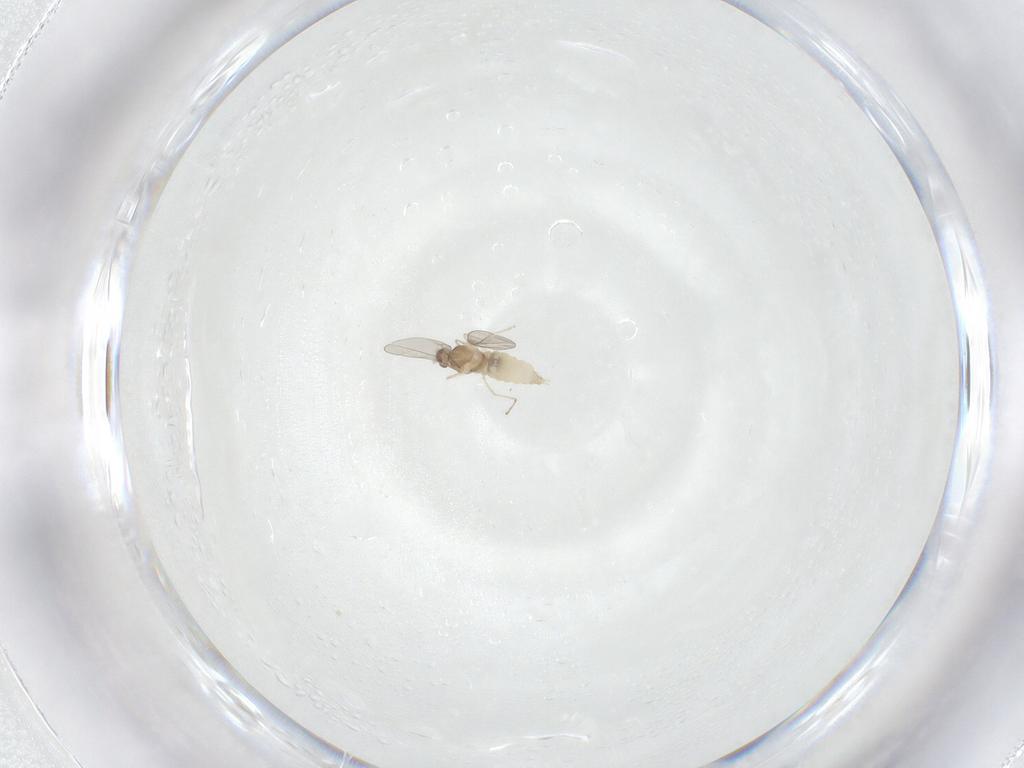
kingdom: Animalia
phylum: Arthropoda
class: Insecta
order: Diptera
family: Cecidomyiidae
